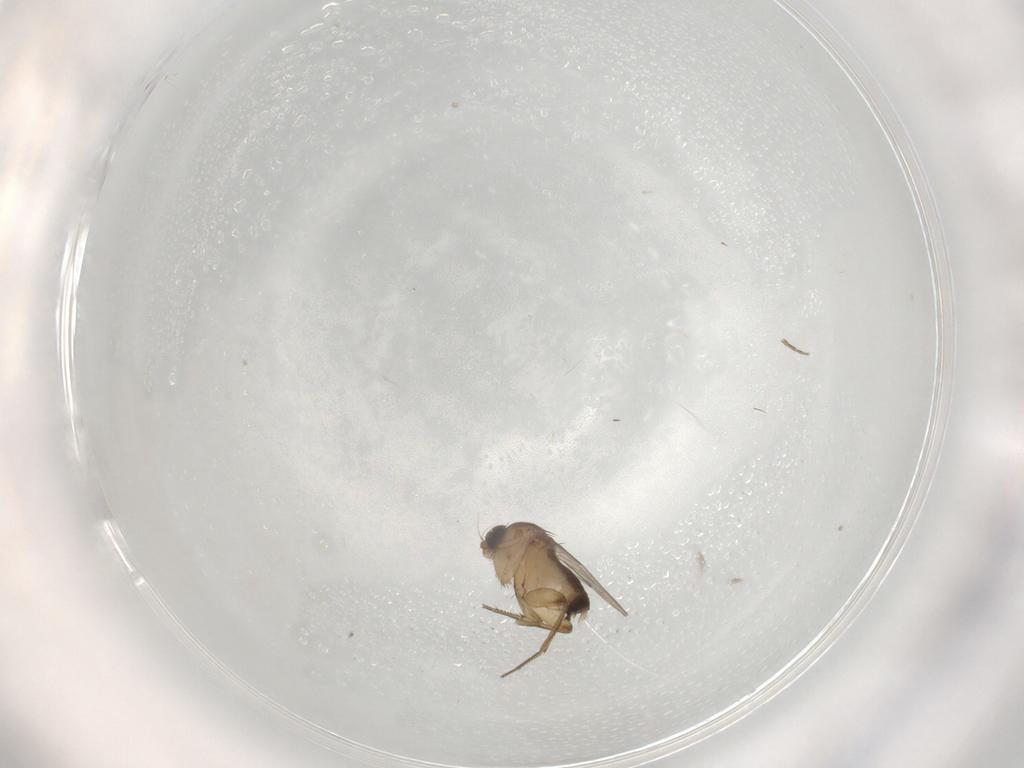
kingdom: Animalia
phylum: Arthropoda
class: Insecta
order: Diptera
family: Phoridae
